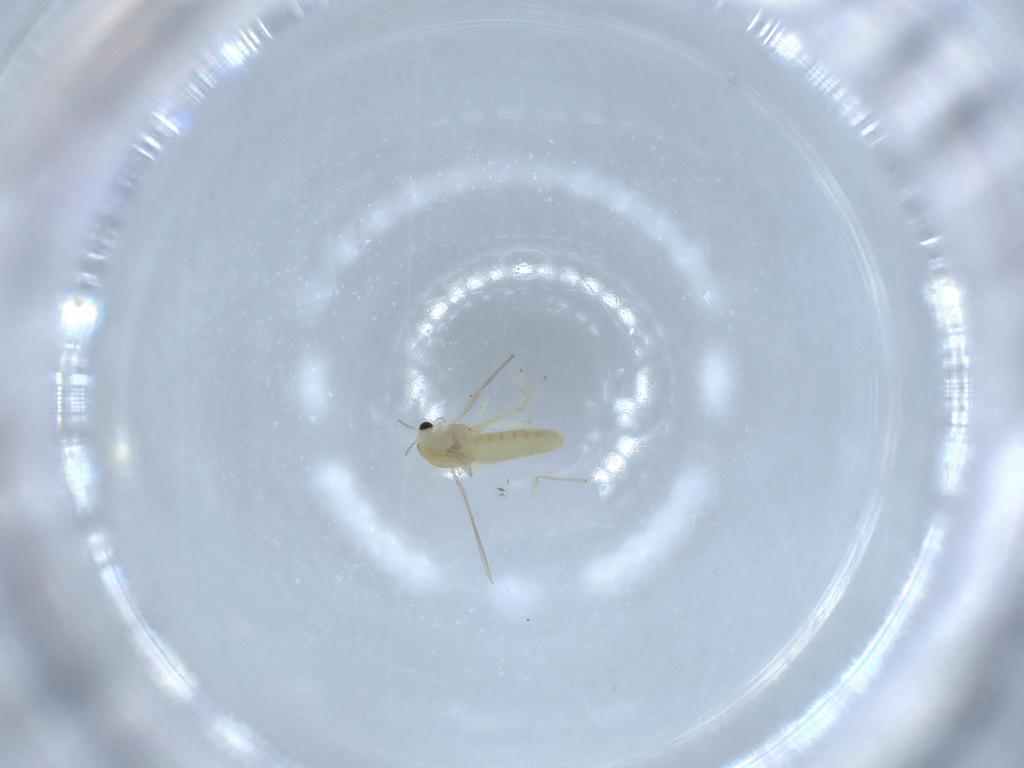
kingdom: Animalia
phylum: Arthropoda
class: Insecta
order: Diptera
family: Chironomidae
